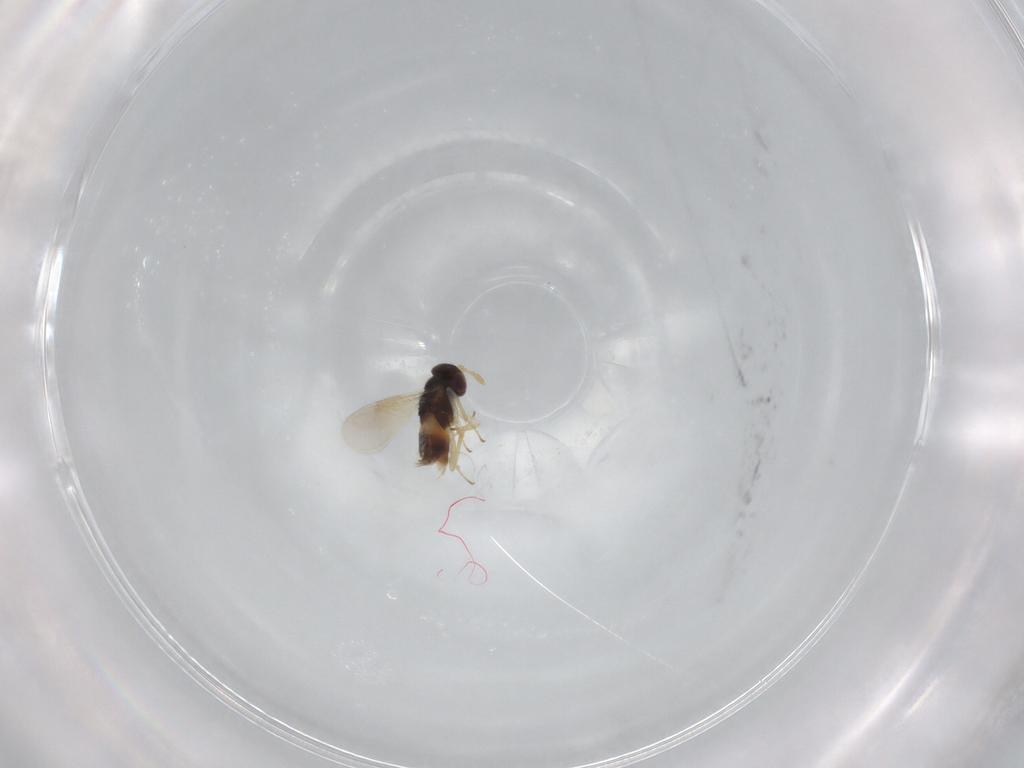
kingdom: Animalia
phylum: Arthropoda
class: Insecta
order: Hymenoptera
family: Aphelinidae
